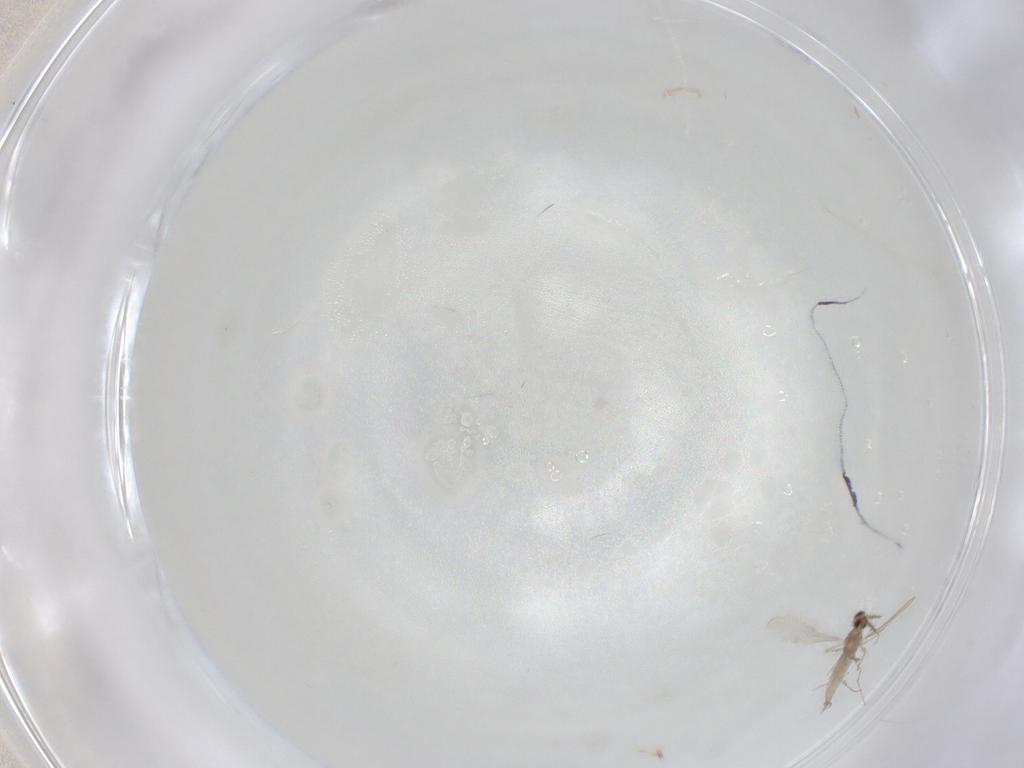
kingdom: Animalia
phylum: Arthropoda
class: Insecta
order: Diptera
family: Cecidomyiidae
